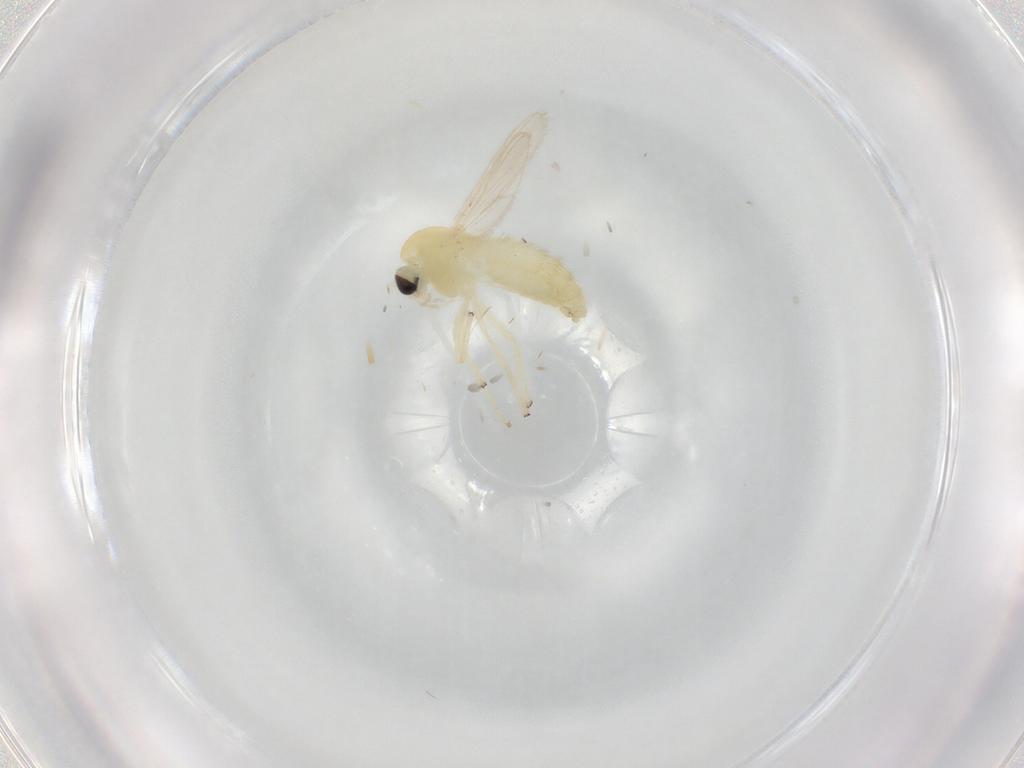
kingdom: Animalia
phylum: Arthropoda
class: Insecta
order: Diptera
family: Chironomidae
